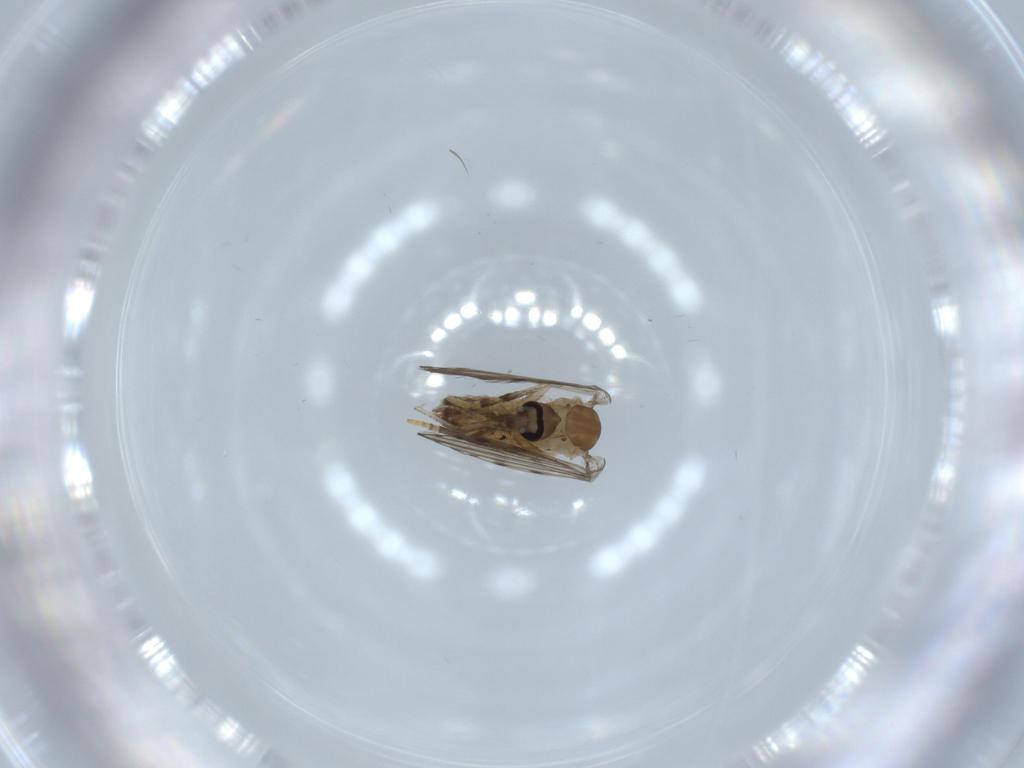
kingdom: Animalia
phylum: Arthropoda
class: Insecta
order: Diptera
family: Psychodidae
